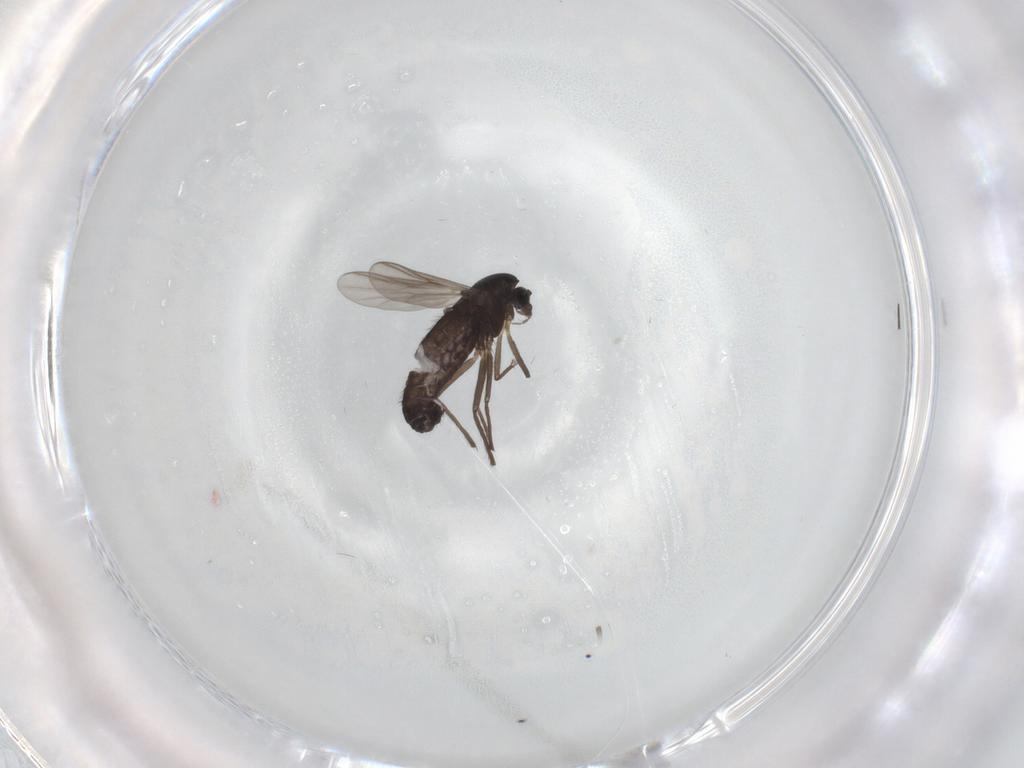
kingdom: Animalia
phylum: Arthropoda
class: Insecta
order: Diptera
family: Chironomidae
